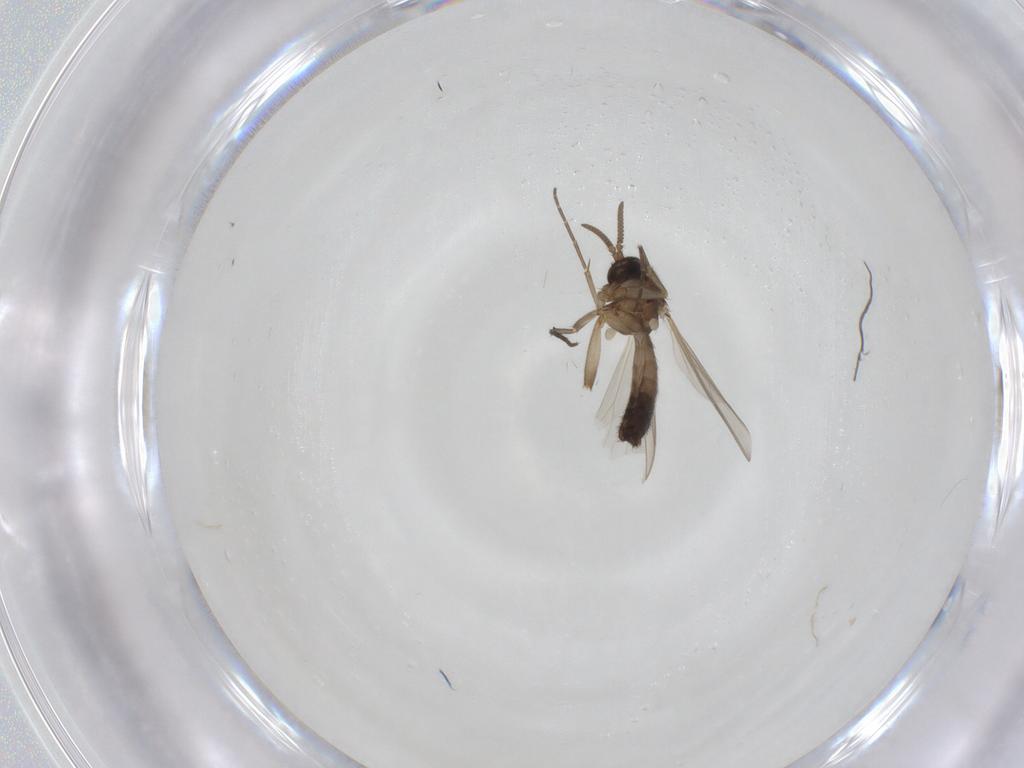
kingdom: Animalia
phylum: Arthropoda
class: Insecta
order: Diptera
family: Mycetophilidae
